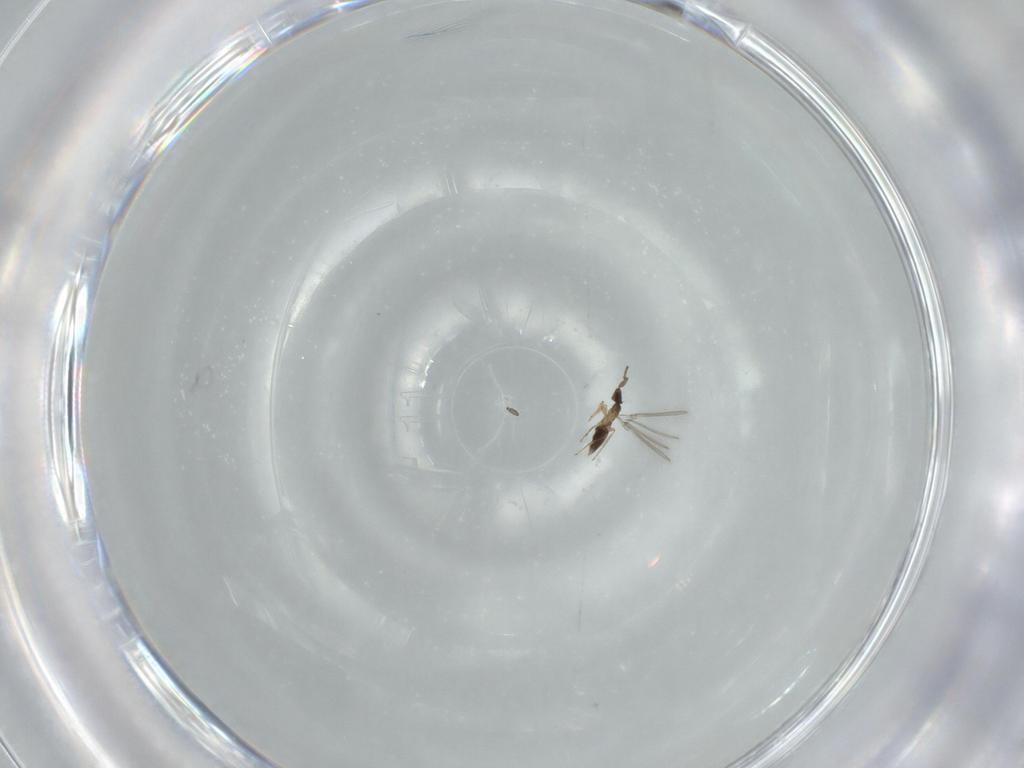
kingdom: Animalia
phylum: Arthropoda
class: Insecta
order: Hymenoptera
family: Mymaridae
